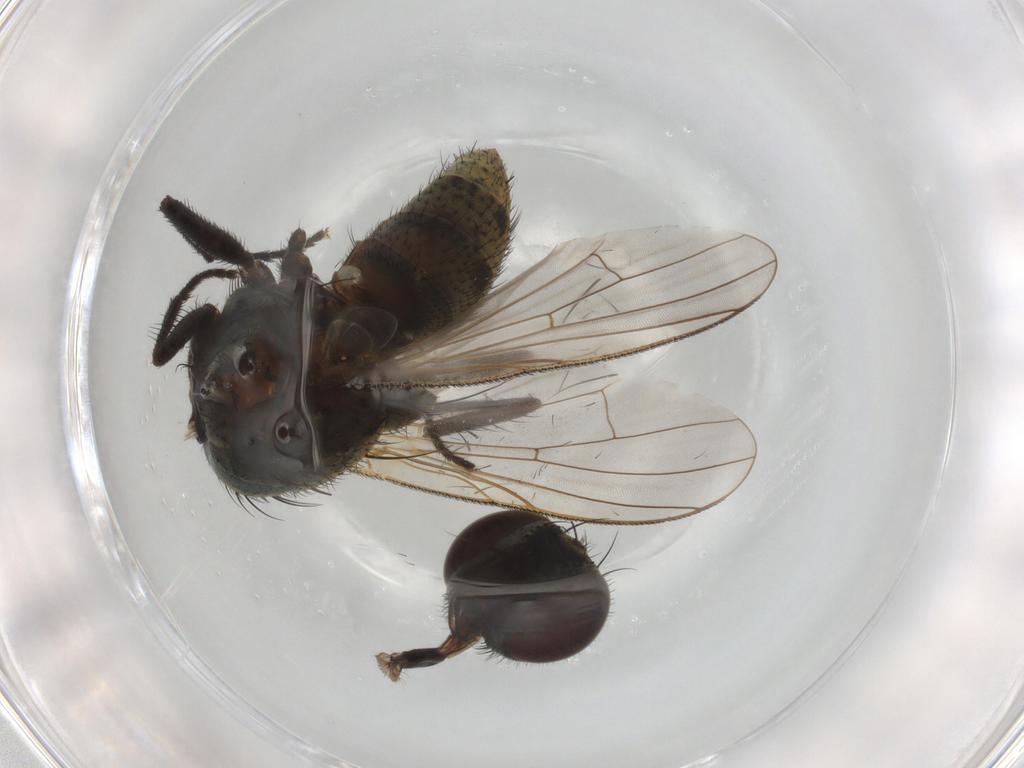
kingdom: Animalia
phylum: Arthropoda
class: Insecta
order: Diptera
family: Muscidae
